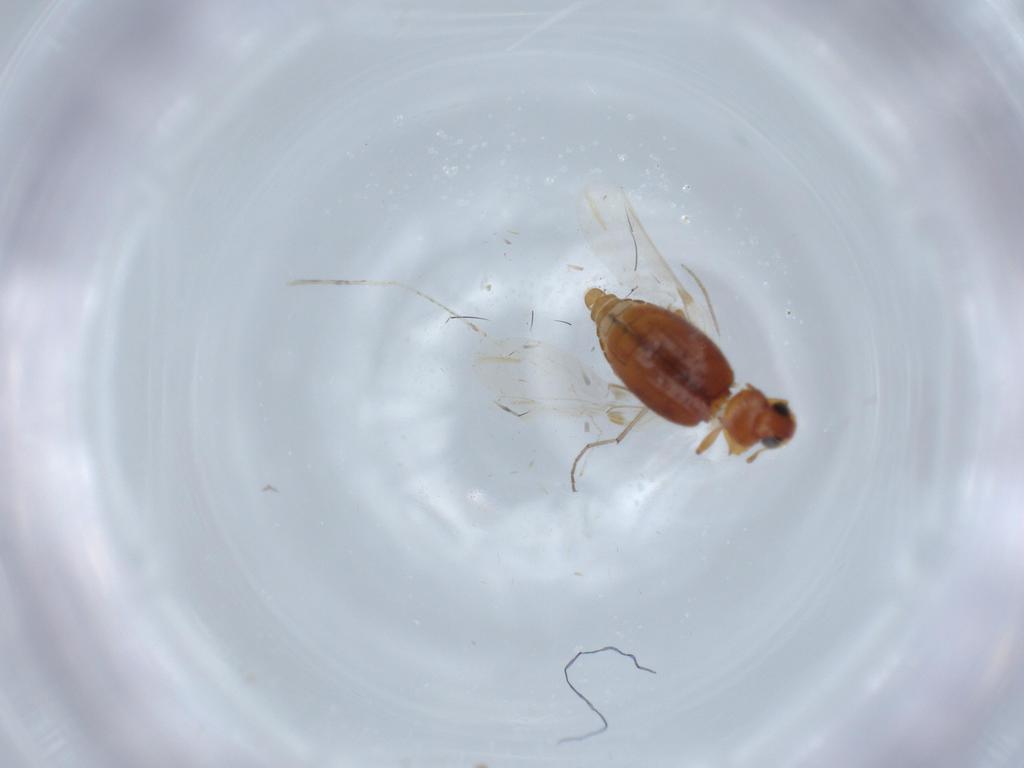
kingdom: Animalia
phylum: Arthropoda
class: Insecta
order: Coleoptera
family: Latridiidae
